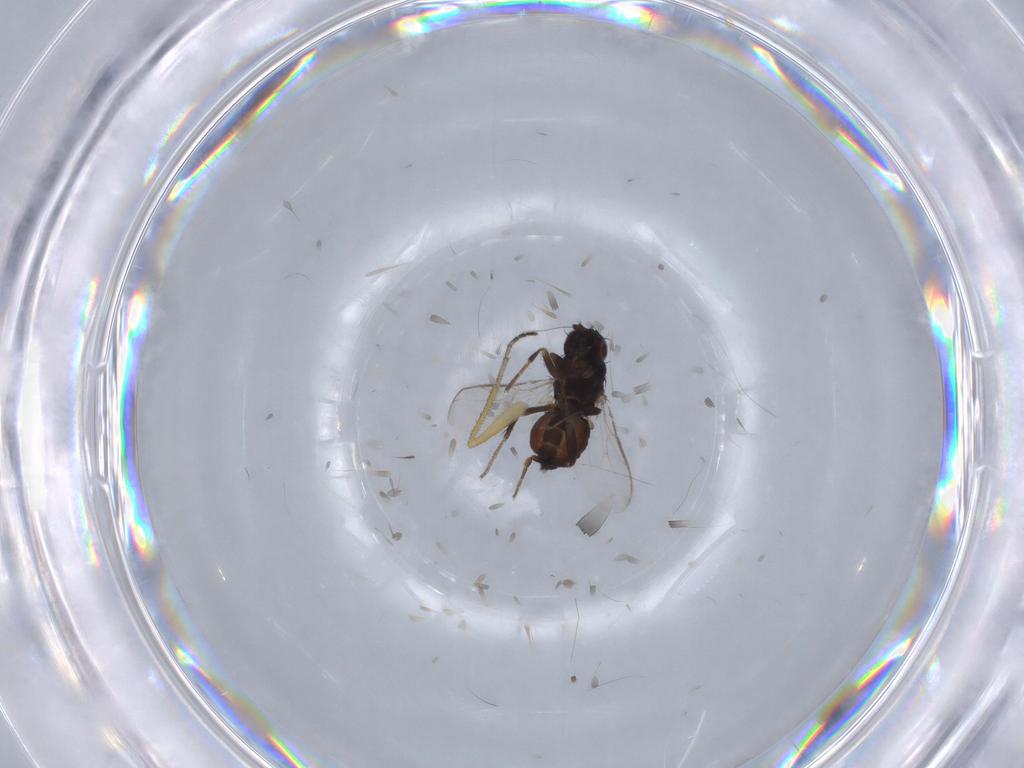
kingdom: Animalia
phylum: Arthropoda
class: Insecta
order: Diptera
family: Sphaeroceridae
